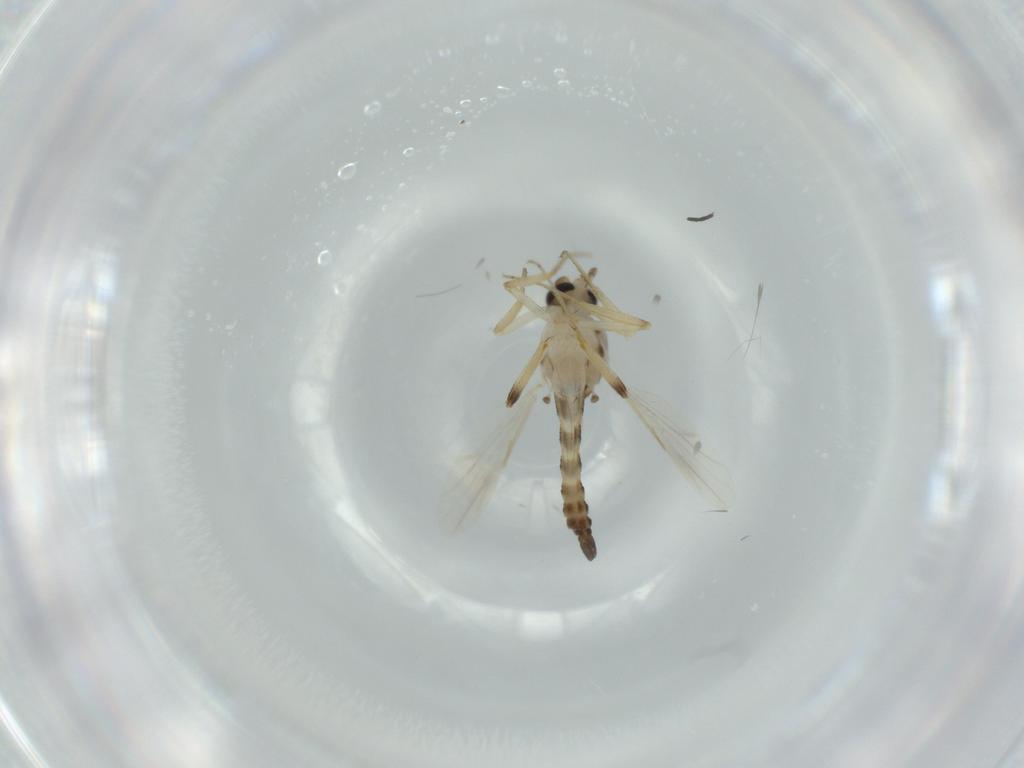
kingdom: Animalia
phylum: Arthropoda
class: Insecta
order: Diptera
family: Ceratopogonidae
